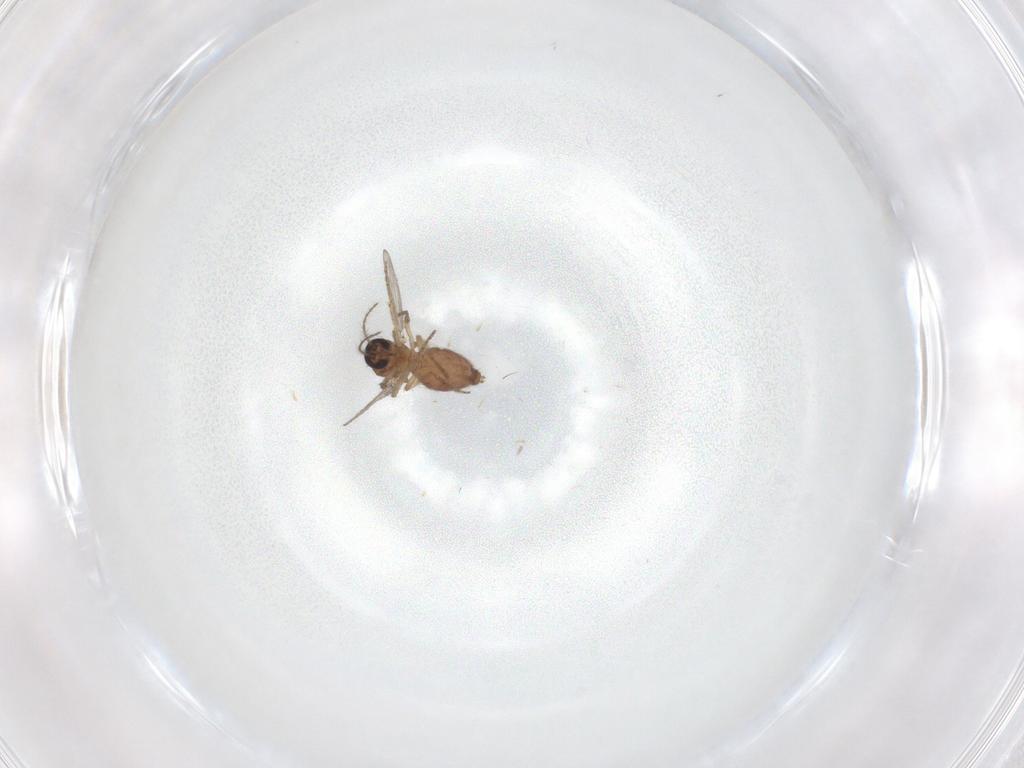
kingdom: Animalia
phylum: Arthropoda
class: Insecta
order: Diptera
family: Ceratopogonidae
